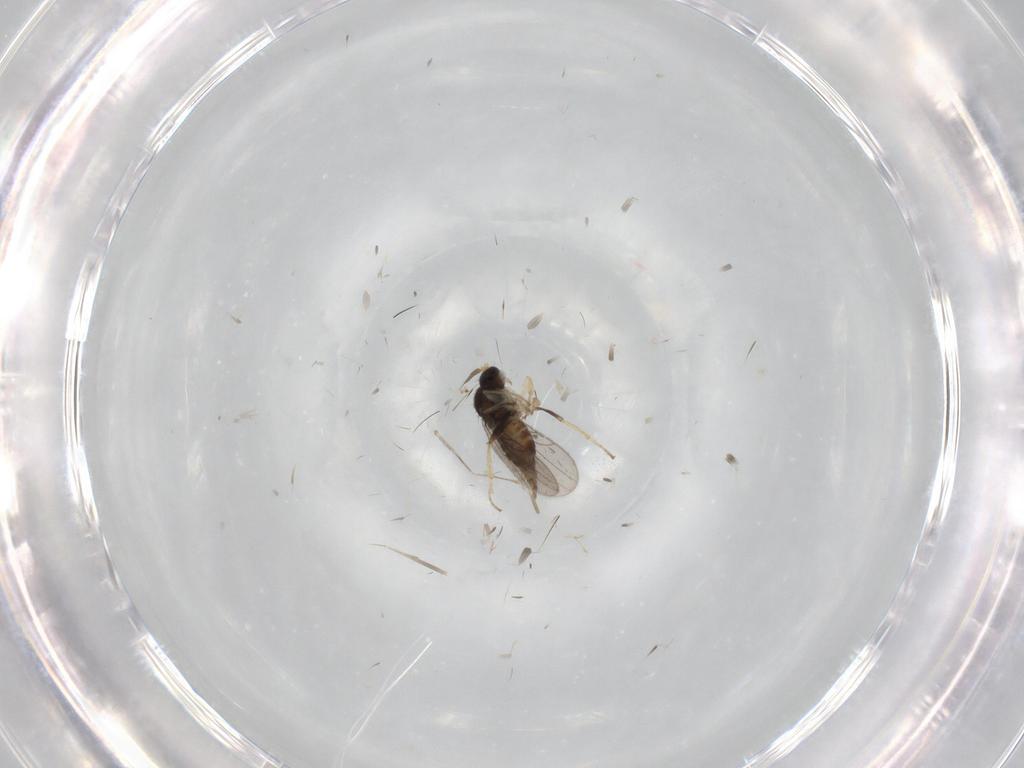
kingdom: Animalia
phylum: Arthropoda
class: Insecta
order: Diptera
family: Hybotidae
